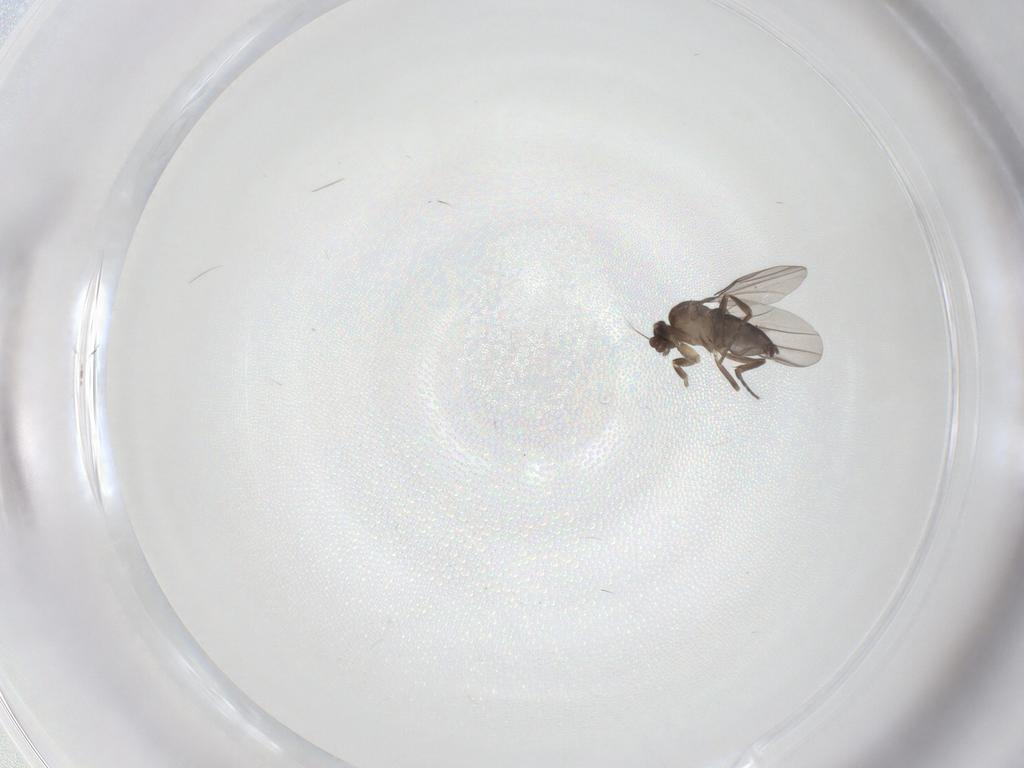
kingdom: Animalia
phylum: Arthropoda
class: Insecta
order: Diptera
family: Cecidomyiidae
